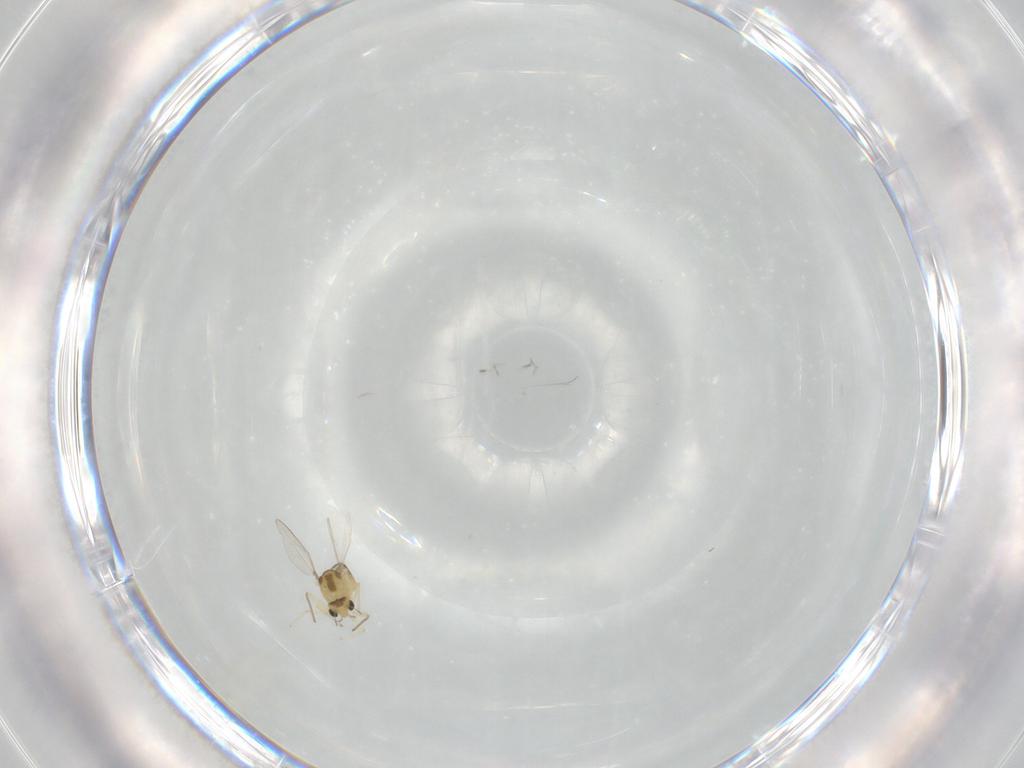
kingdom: Animalia
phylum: Arthropoda
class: Insecta
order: Diptera
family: Chironomidae
